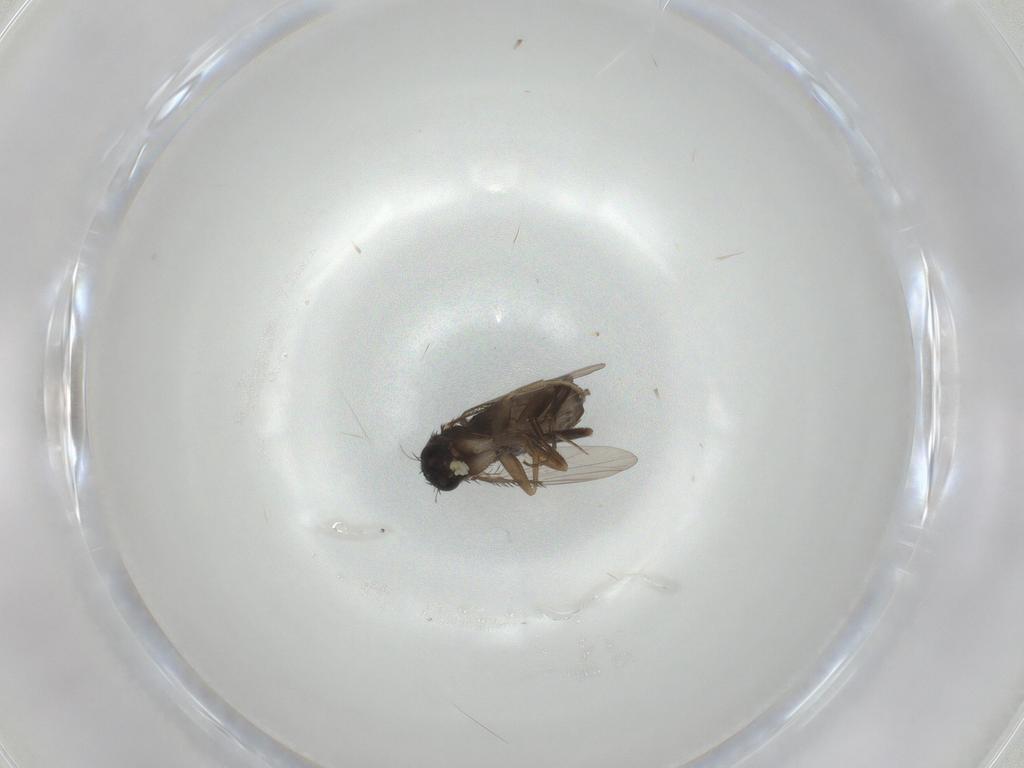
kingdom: Animalia
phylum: Arthropoda
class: Insecta
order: Diptera
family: Phoridae
